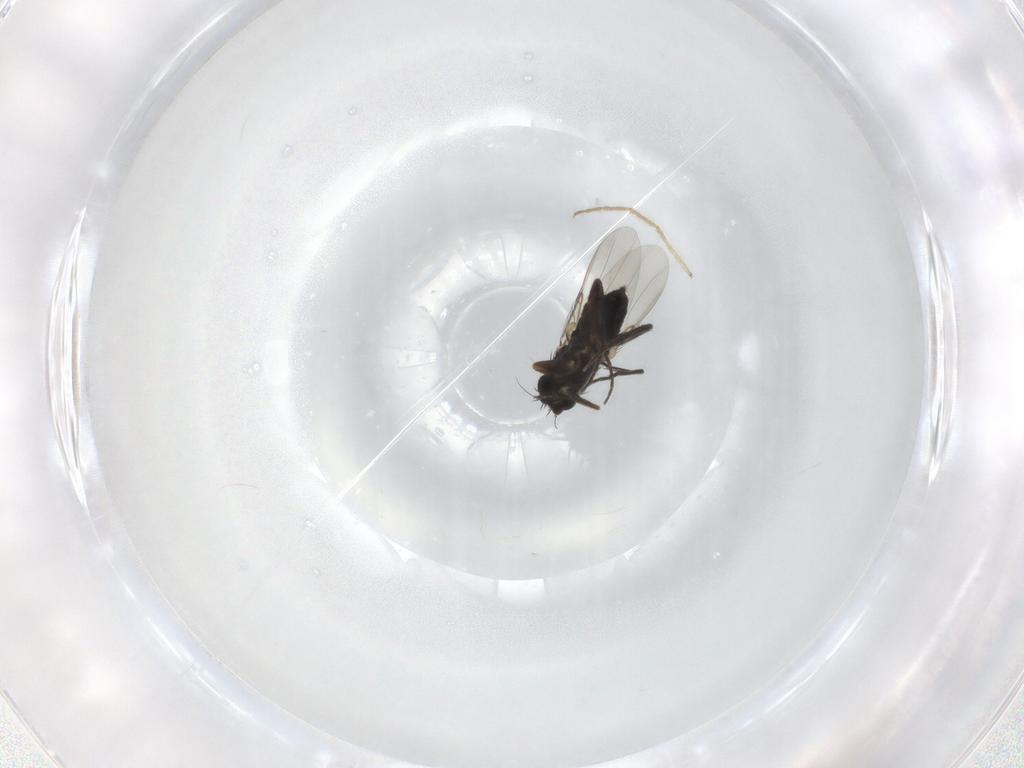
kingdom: Animalia
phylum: Arthropoda
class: Insecta
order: Diptera
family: Phoridae
